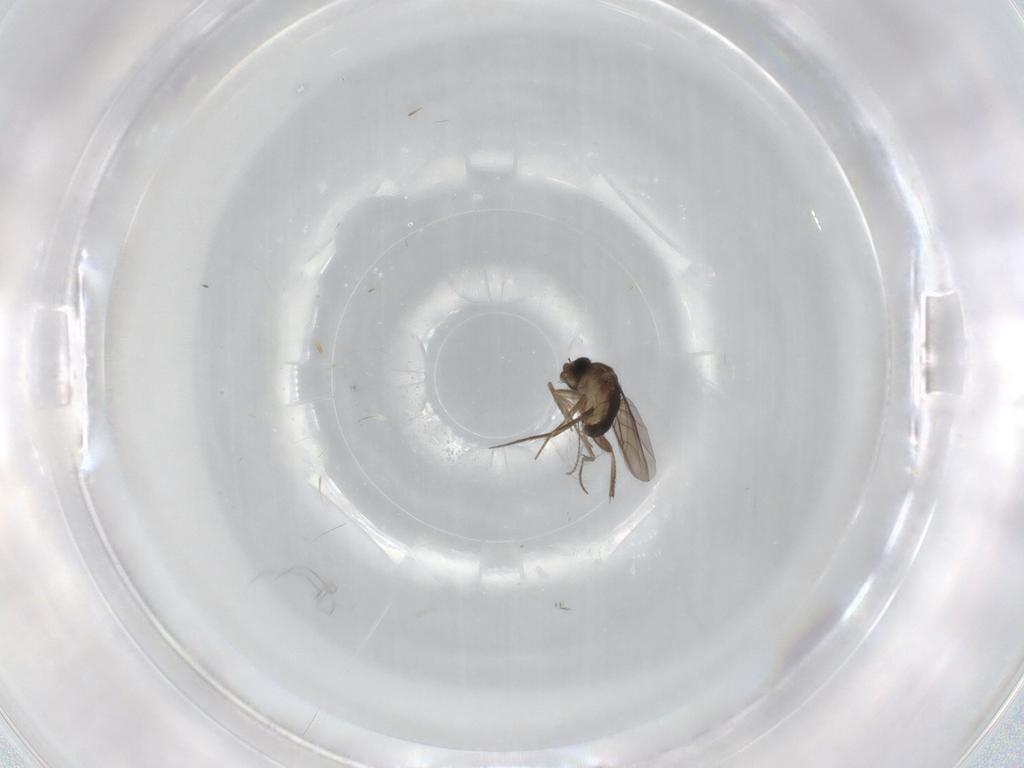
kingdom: Animalia
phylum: Arthropoda
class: Insecta
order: Diptera
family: Phoridae
